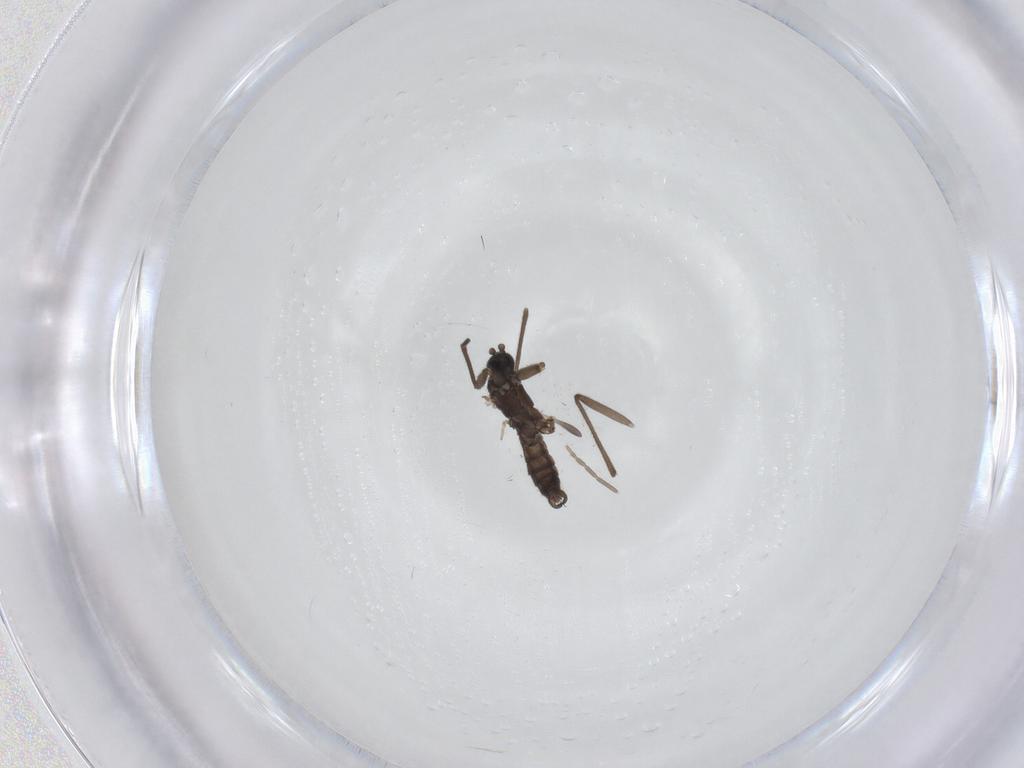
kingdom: Animalia
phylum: Arthropoda
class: Insecta
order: Diptera
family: Sciaridae
